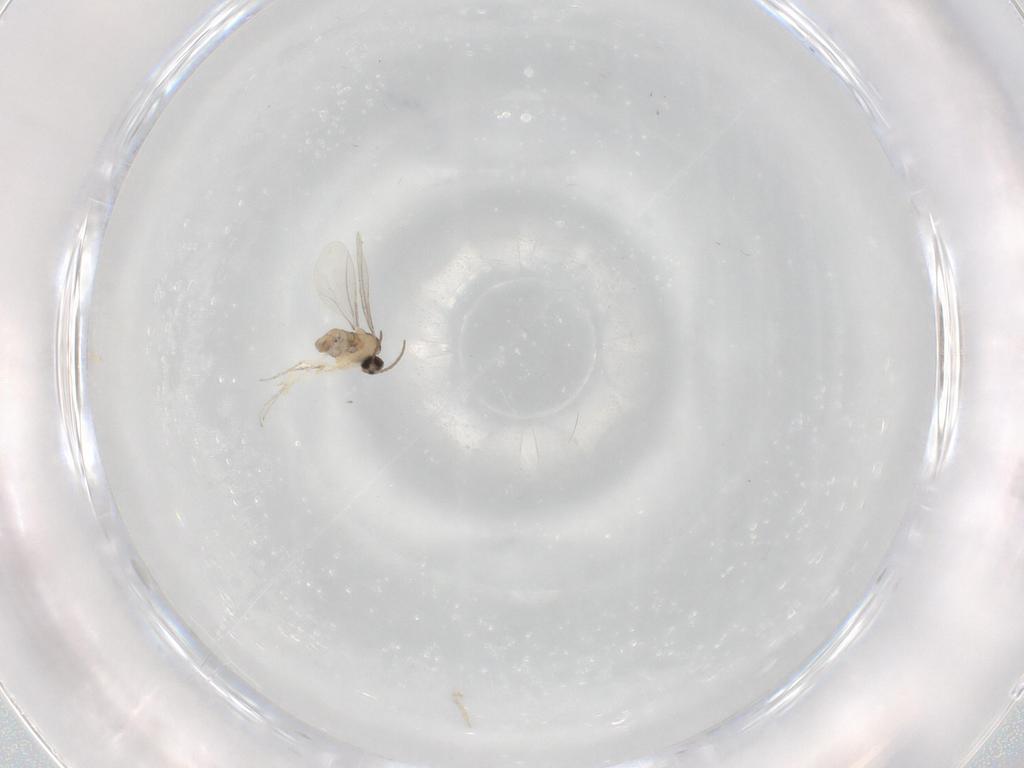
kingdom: Animalia
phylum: Arthropoda
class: Insecta
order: Diptera
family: Cecidomyiidae
